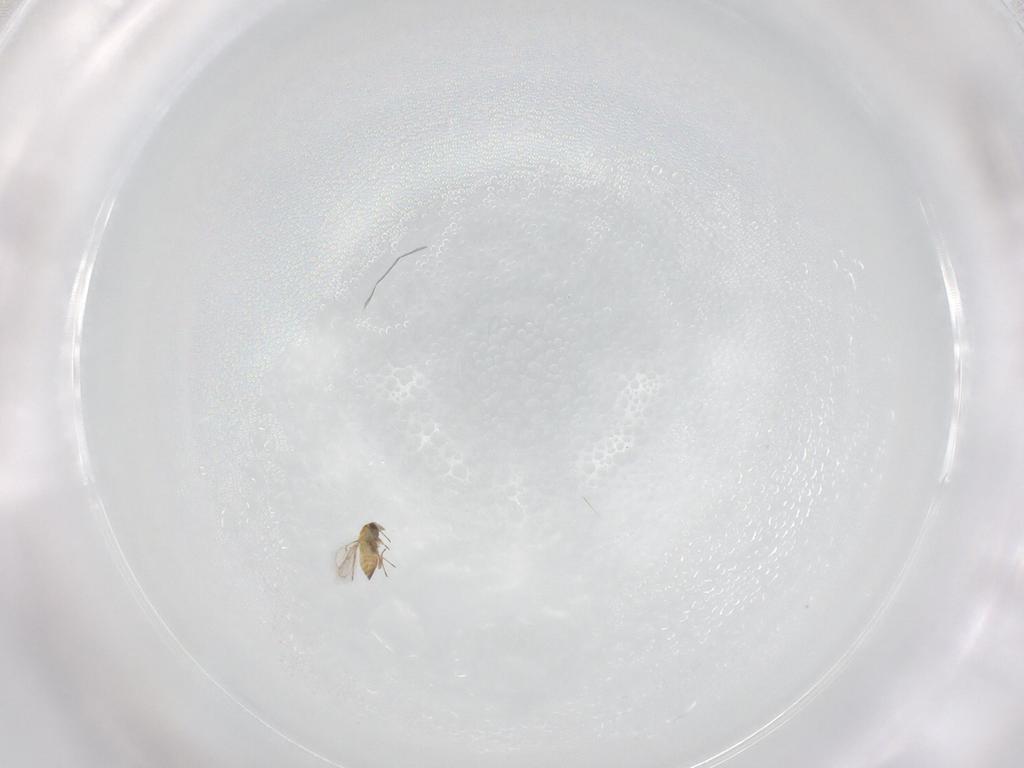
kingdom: Animalia
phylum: Arthropoda
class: Insecta
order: Hymenoptera
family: Trichogrammatidae
